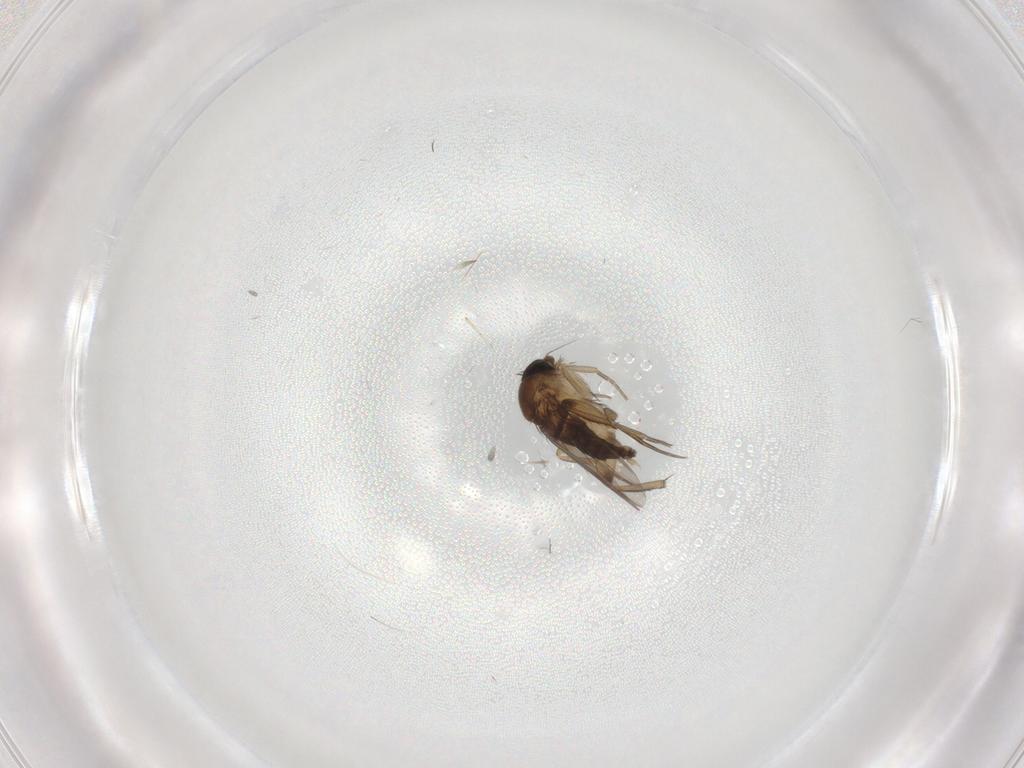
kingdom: Animalia
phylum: Arthropoda
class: Insecta
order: Diptera
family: Phoridae
